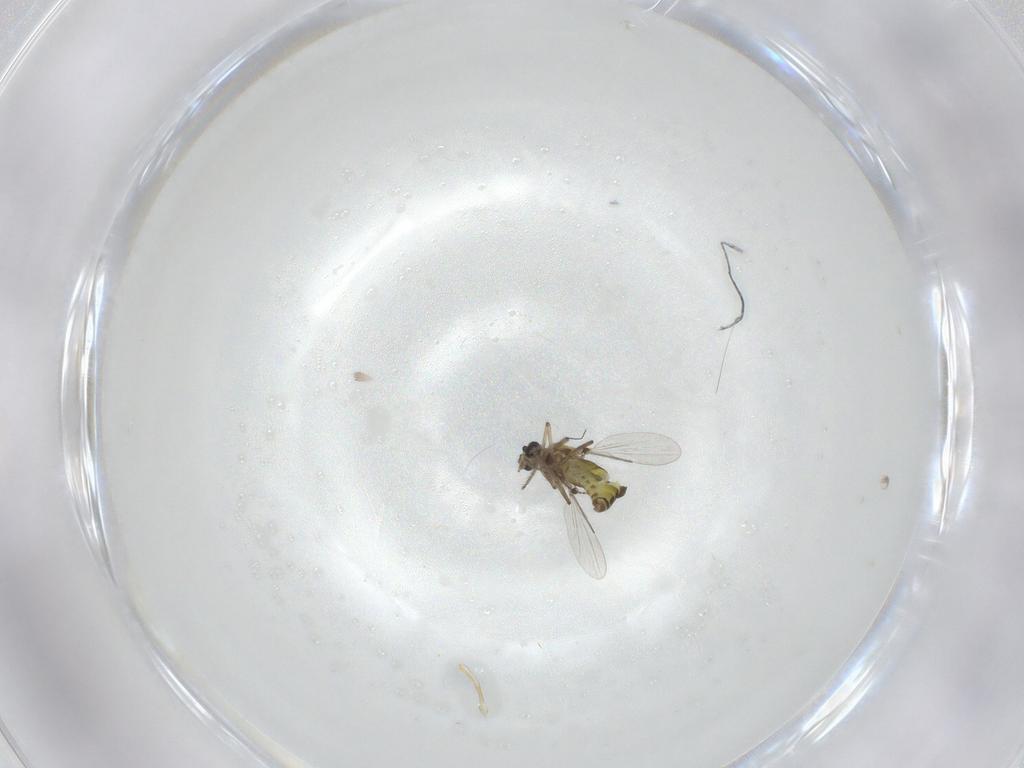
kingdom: Animalia
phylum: Arthropoda
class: Insecta
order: Diptera
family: Ceratopogonidae
